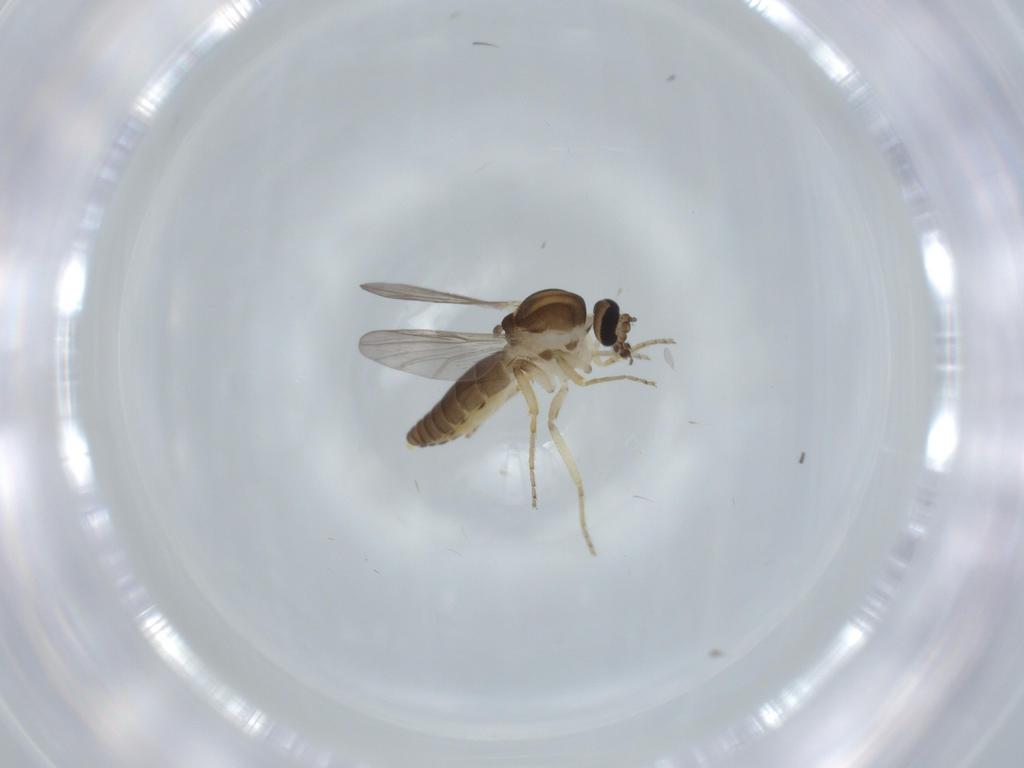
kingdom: Animalia
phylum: Arthropoda
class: Insecta
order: Diptera
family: Ceratopogonidae
